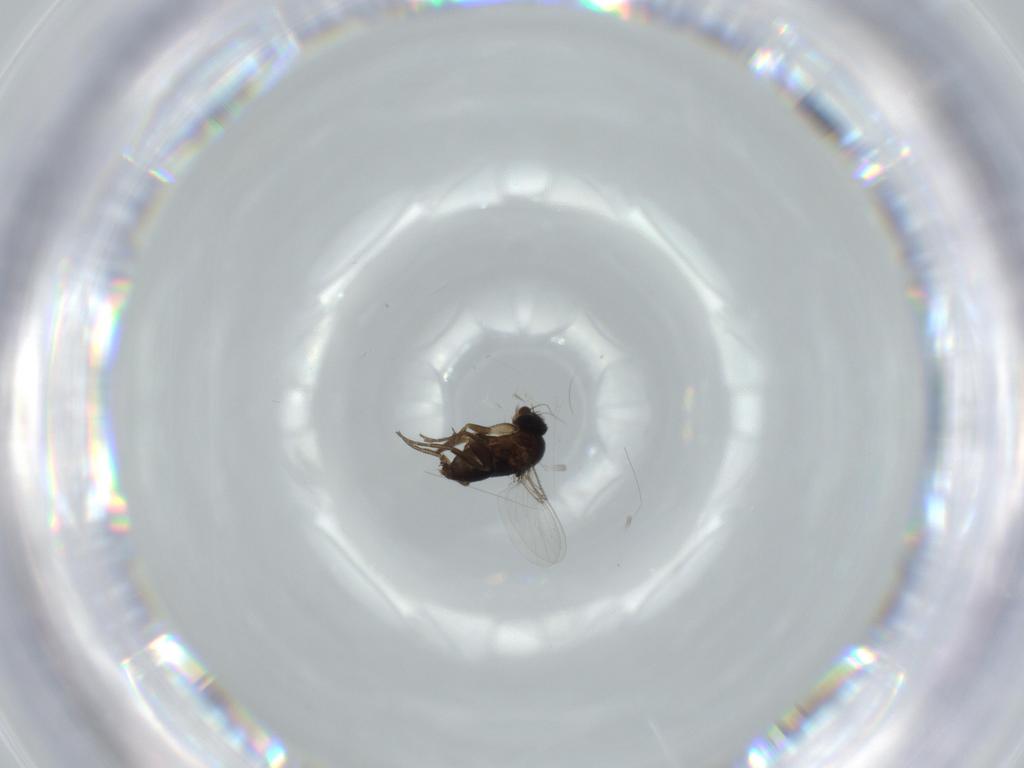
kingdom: Animalia
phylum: Arthropoda
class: Insecta
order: Diptera
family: Phoridae
